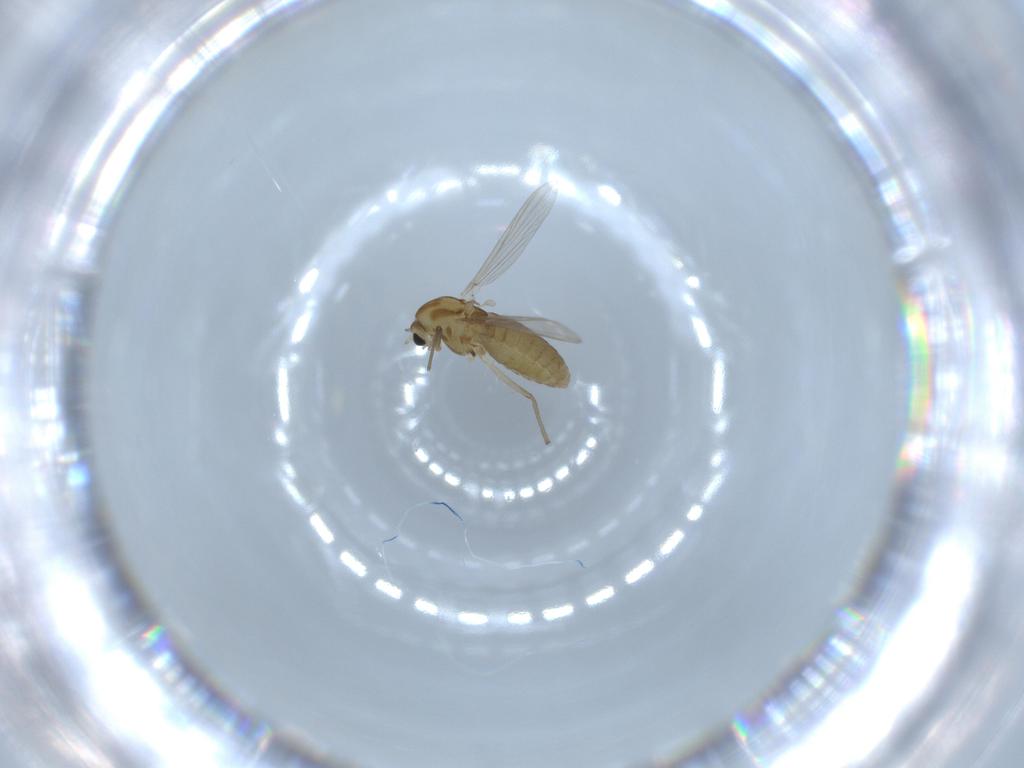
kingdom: Animalia
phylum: Arthropoda
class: Insecta
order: Diptera
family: Chironomidae
